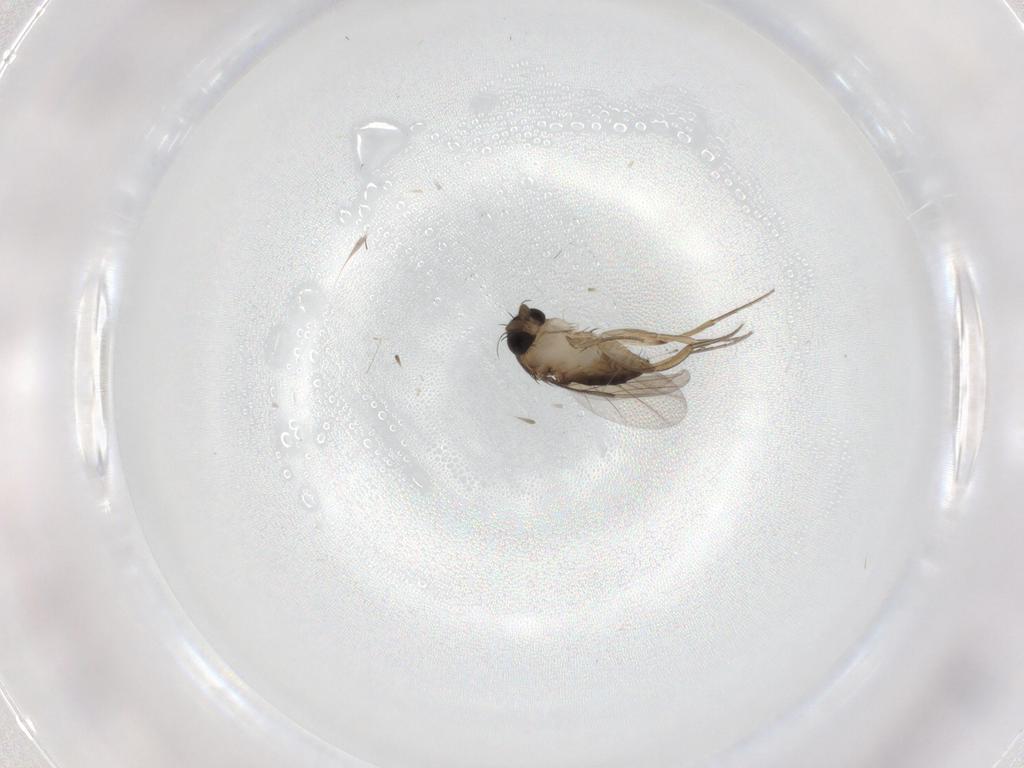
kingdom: Animalia
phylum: Arthropoda
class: Insecta
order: Diptera
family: Phoridae
